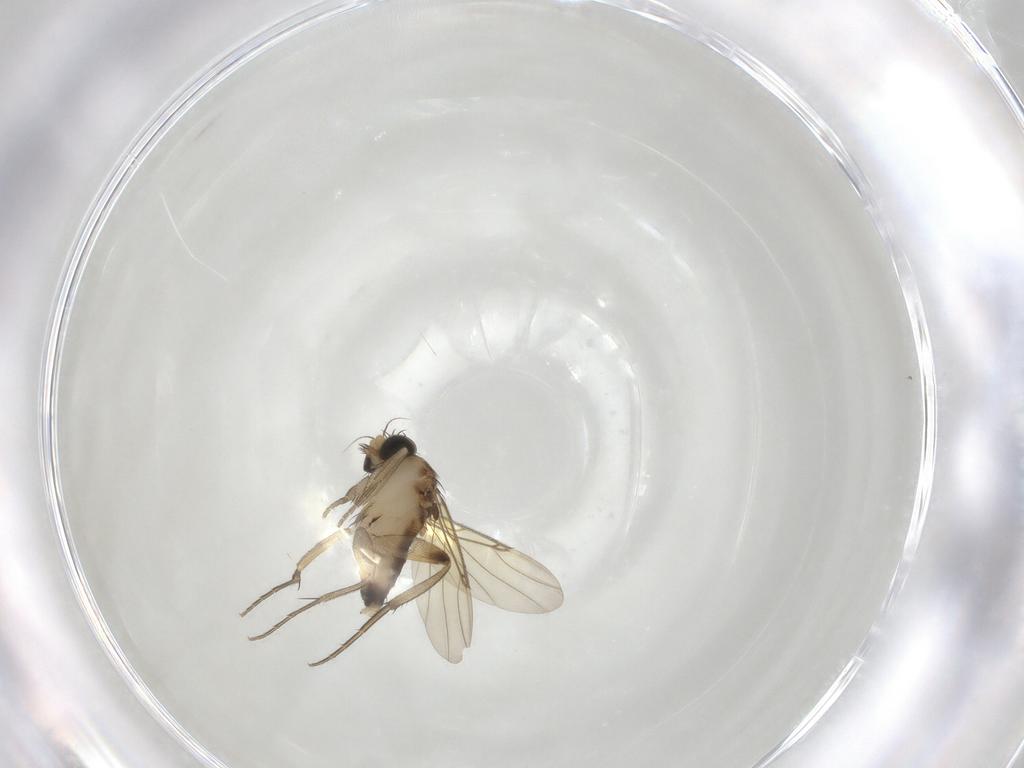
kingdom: Animalia
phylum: Arthropoda
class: Insecta
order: Diptera
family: Phoridae
